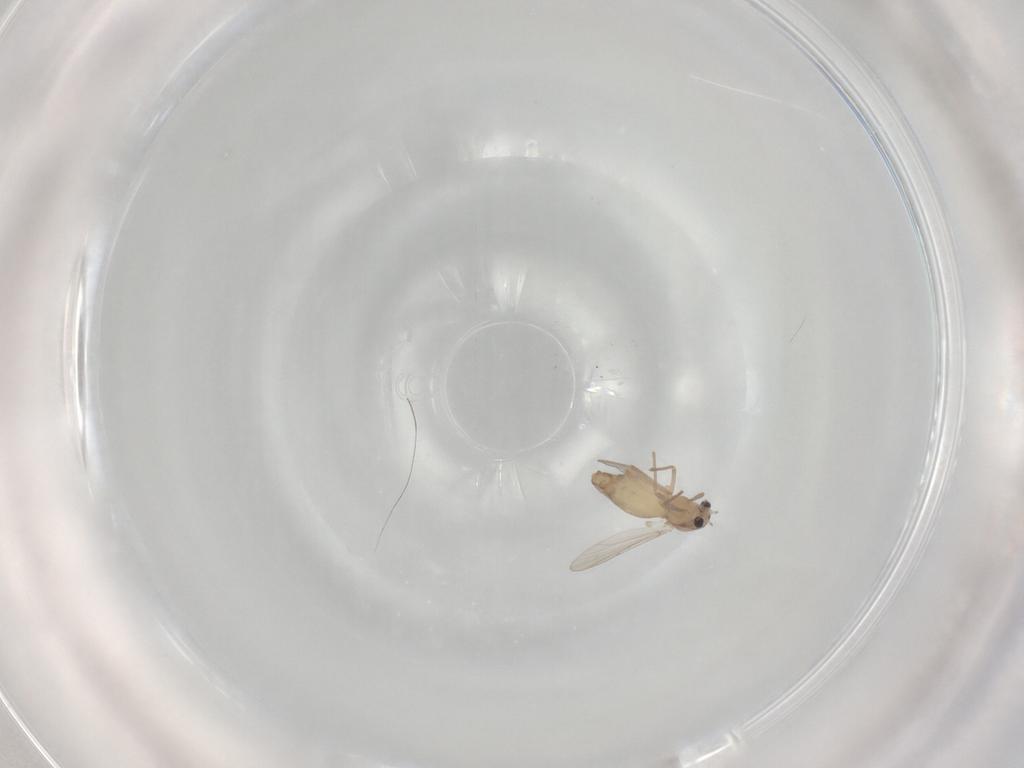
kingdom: Animalia
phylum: Arthropoda
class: Insecta
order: Diptera
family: Chironomidae
